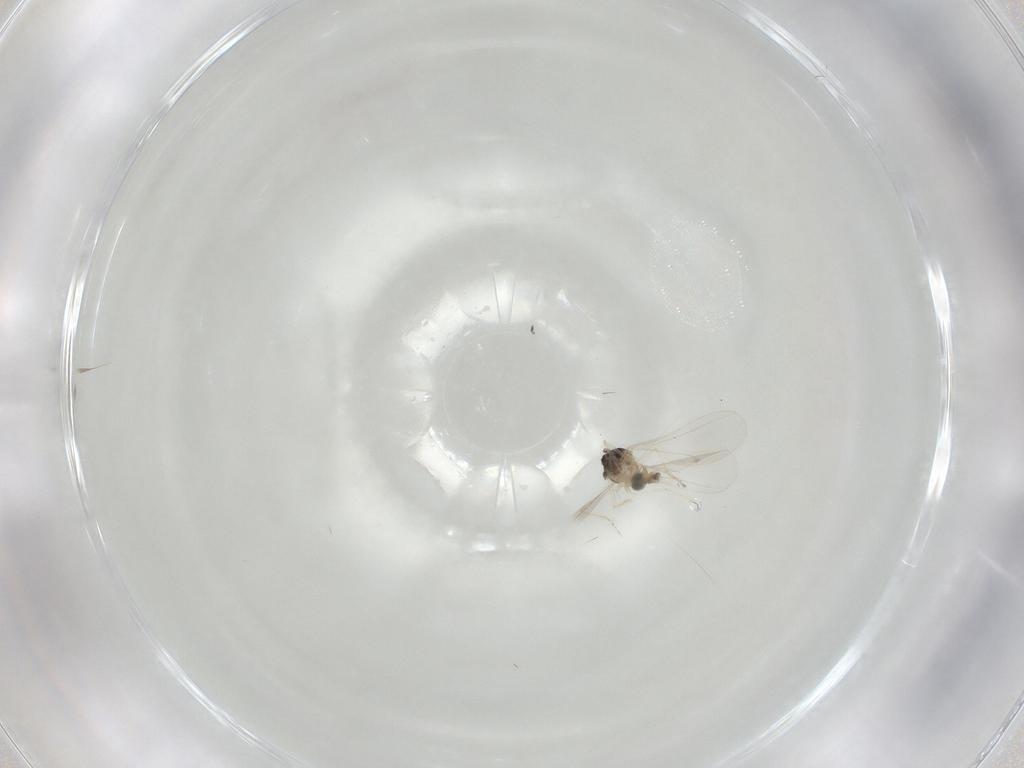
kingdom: Animalia
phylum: Arthropoda
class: Insecta
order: Diptera
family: Cecidomyiidae
